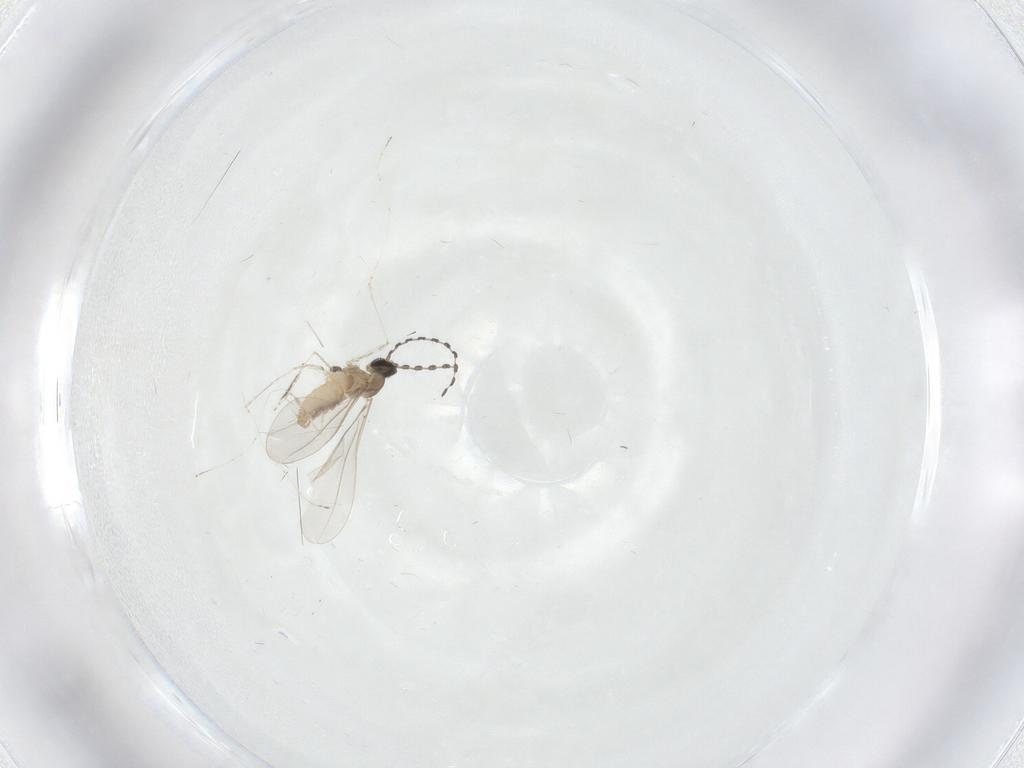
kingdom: Animalia
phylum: Arthropoda
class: Insecta
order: Diptera
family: Cecidomyiidae
